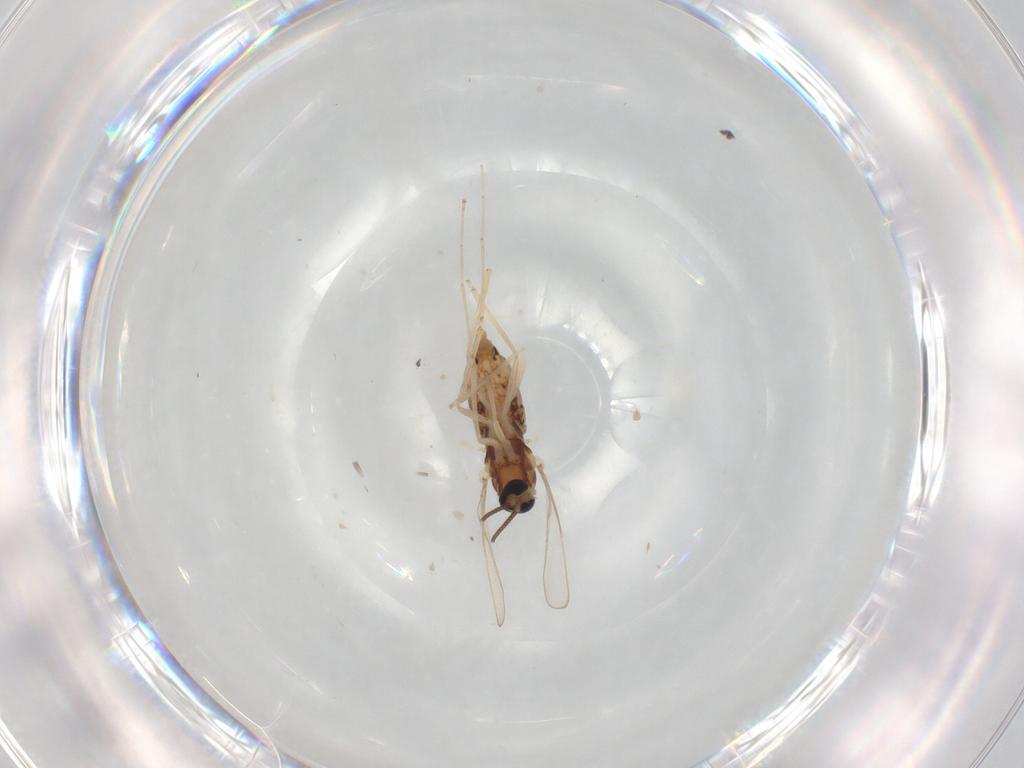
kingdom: Animalia
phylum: Arthropoda
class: Insecta
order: Diptera
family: Cecidomyiidae
